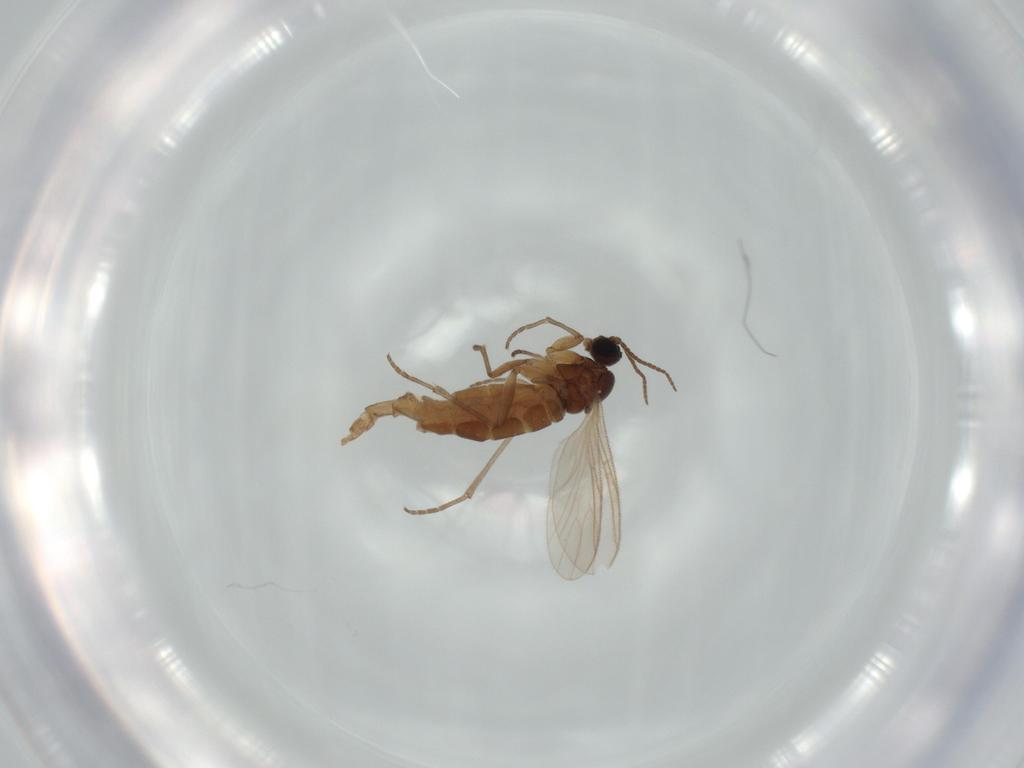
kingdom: Animalia
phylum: Arthropoda
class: Insecta
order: Diptera
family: Sciaridae
